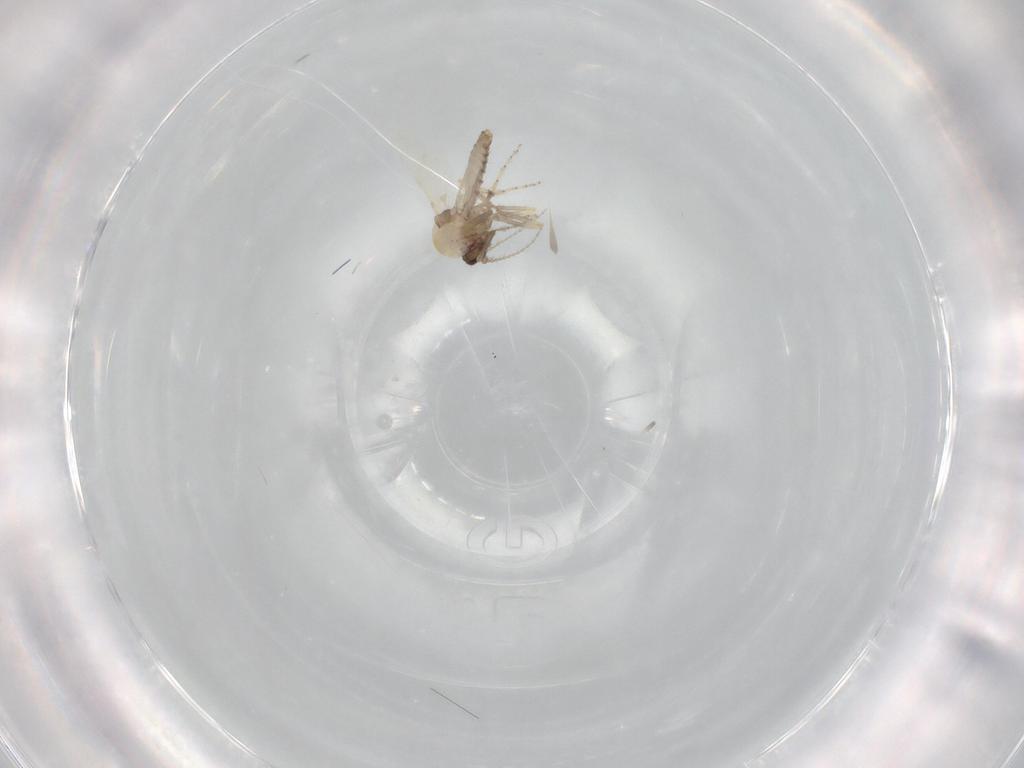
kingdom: Animalia
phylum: Arthropoda
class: Insecta
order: Diptera
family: Ceratopogonidae
